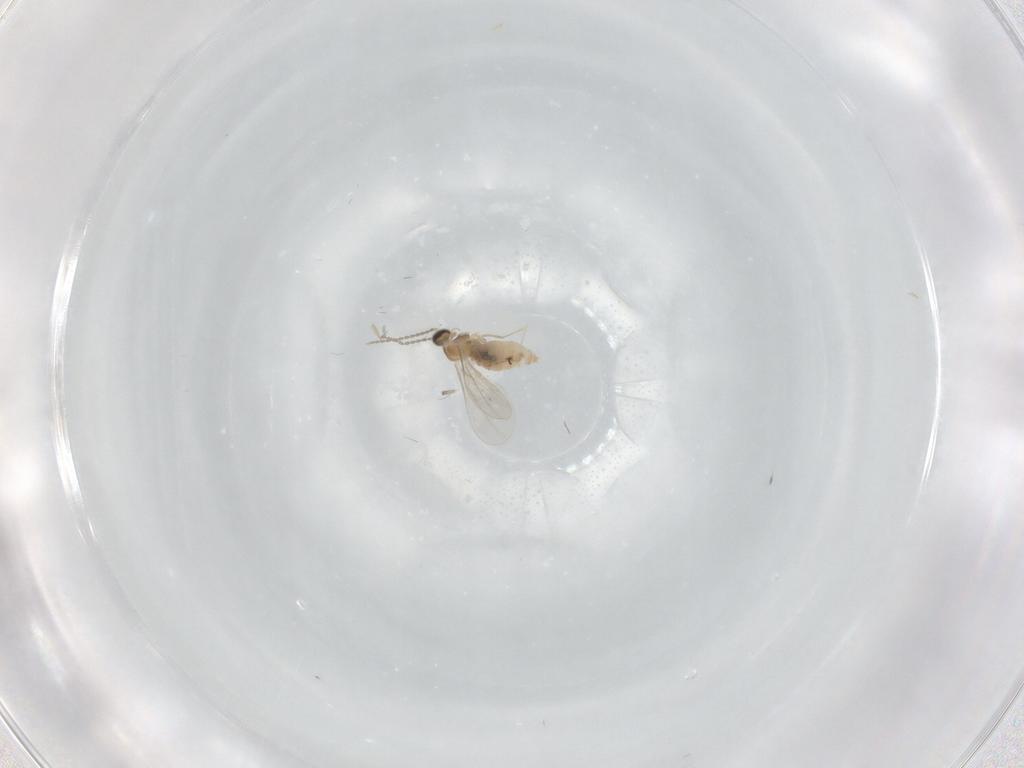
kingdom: Animalia
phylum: Arthropoda
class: Insecta
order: Diptera
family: Cecidomyiidae
